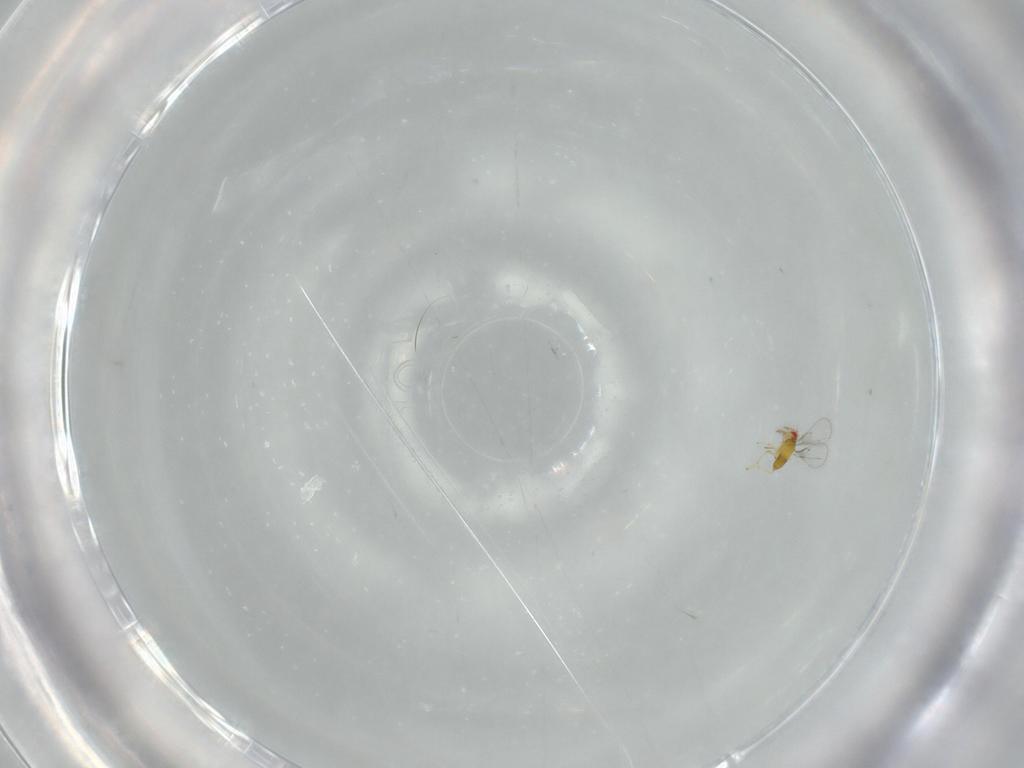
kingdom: Animalia
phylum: Arthropoda
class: Insecta
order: Hymenoptera
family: Trichogrammatidae
